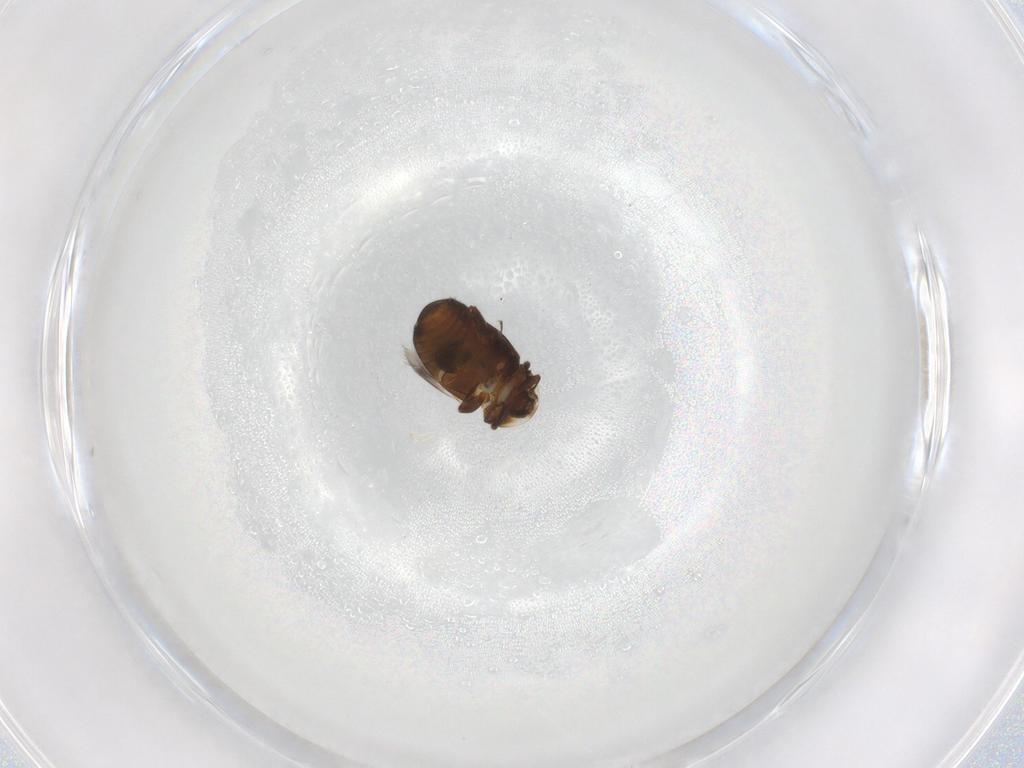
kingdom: Animalia
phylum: Arthropoda
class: Insecta
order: Coleoptera
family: Corylophidae
